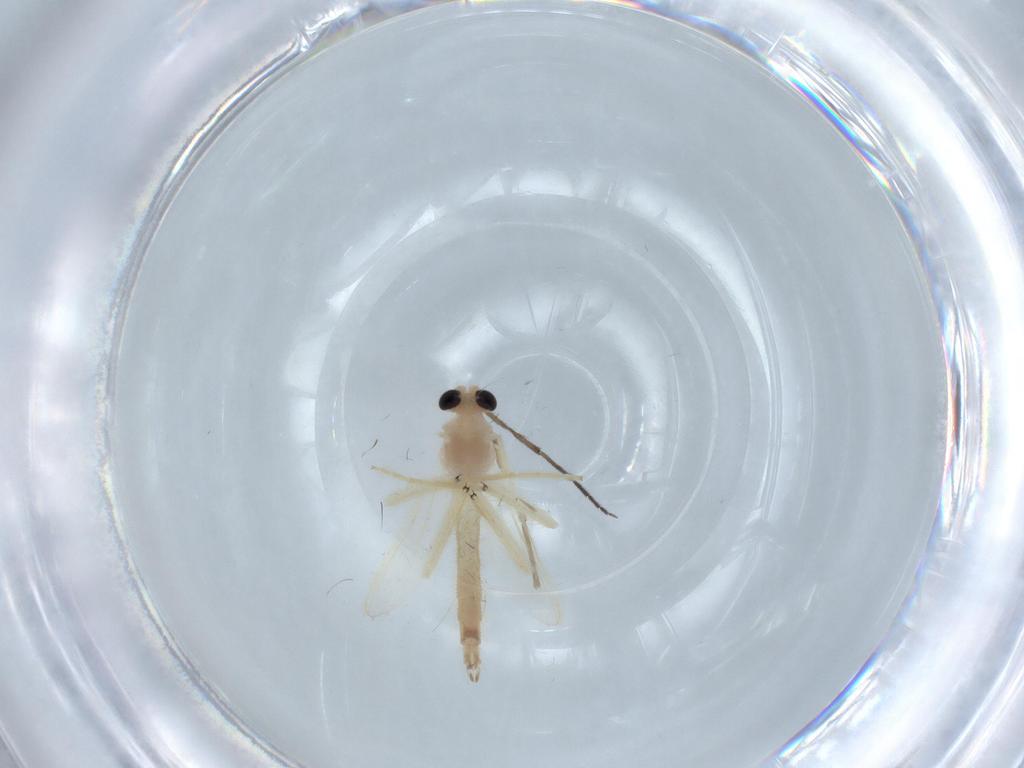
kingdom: Animalia
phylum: Arthropoda
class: Insecta
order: Diptera
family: Chironomidae
